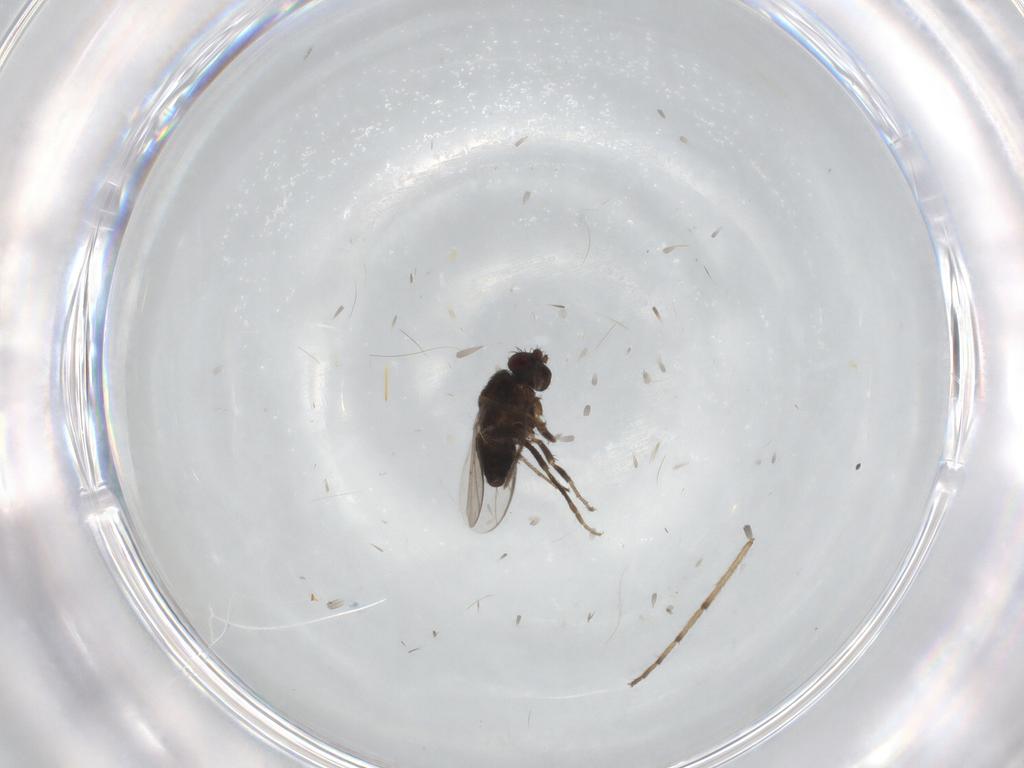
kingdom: Animalia
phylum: Arthropoda
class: Insecta
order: Diptera
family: Sphaeroceridae
